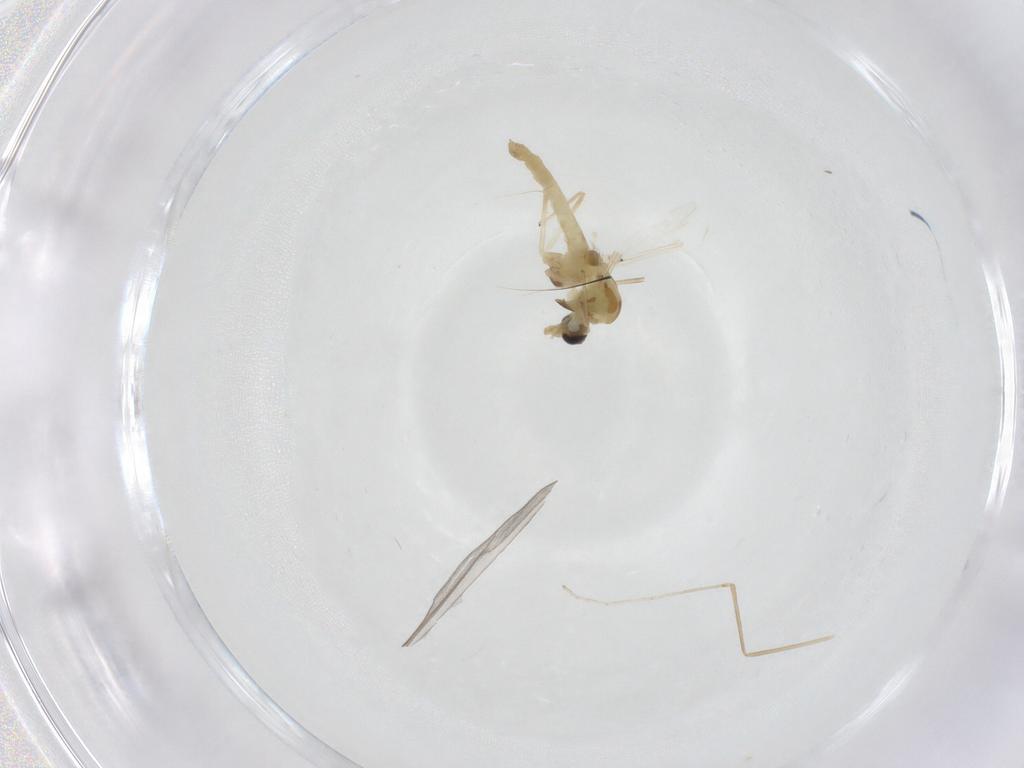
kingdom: Animalia
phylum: Arthropoda
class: Insecta
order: Diptera
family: Chironomidae
